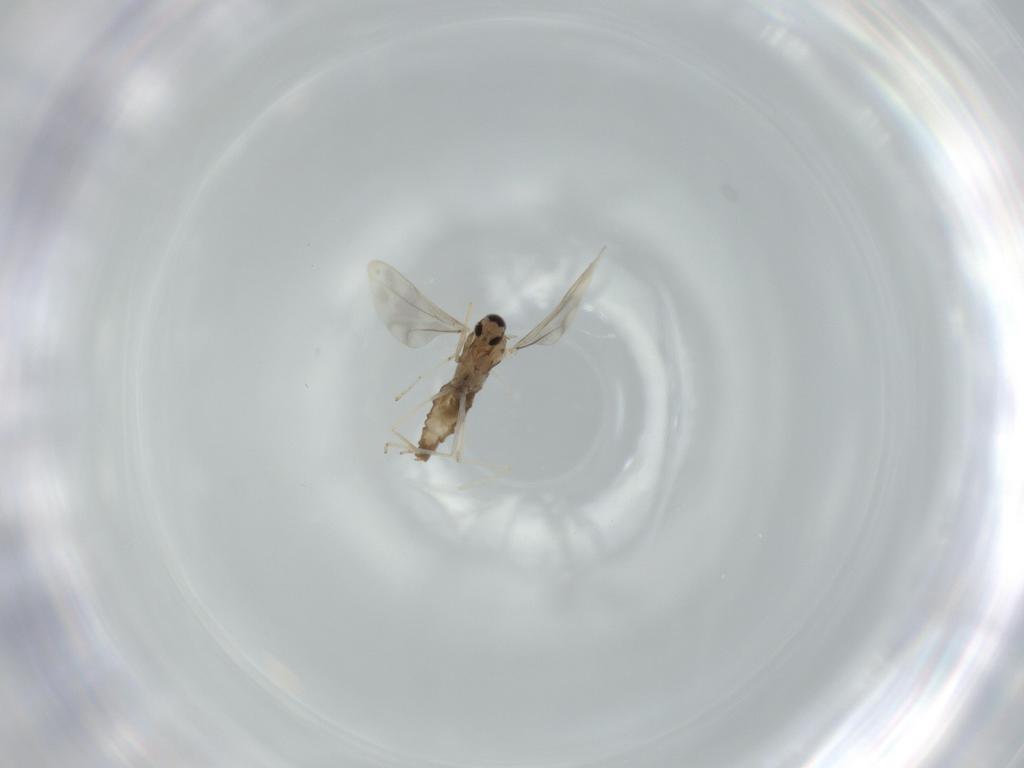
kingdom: Animalia
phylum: Arthropoda
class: Insecta
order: Diptera
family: Cecidomyiidae
